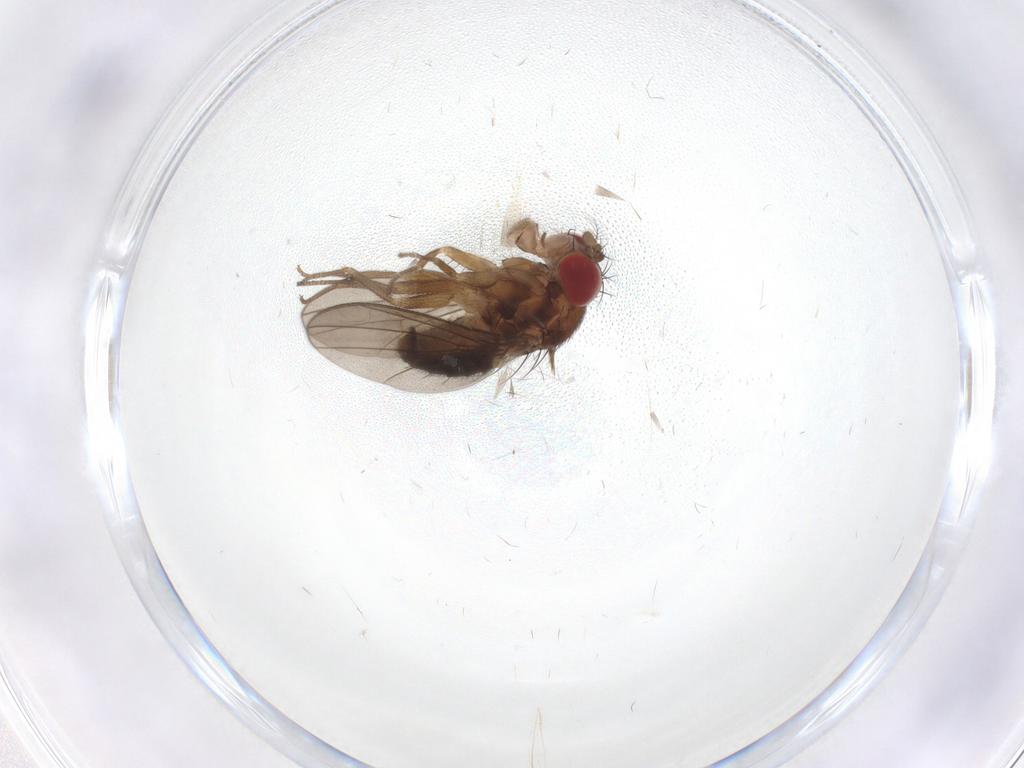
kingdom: Animalia
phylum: Arthropoda
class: Insecta
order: Diptera
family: Drosophilidae
